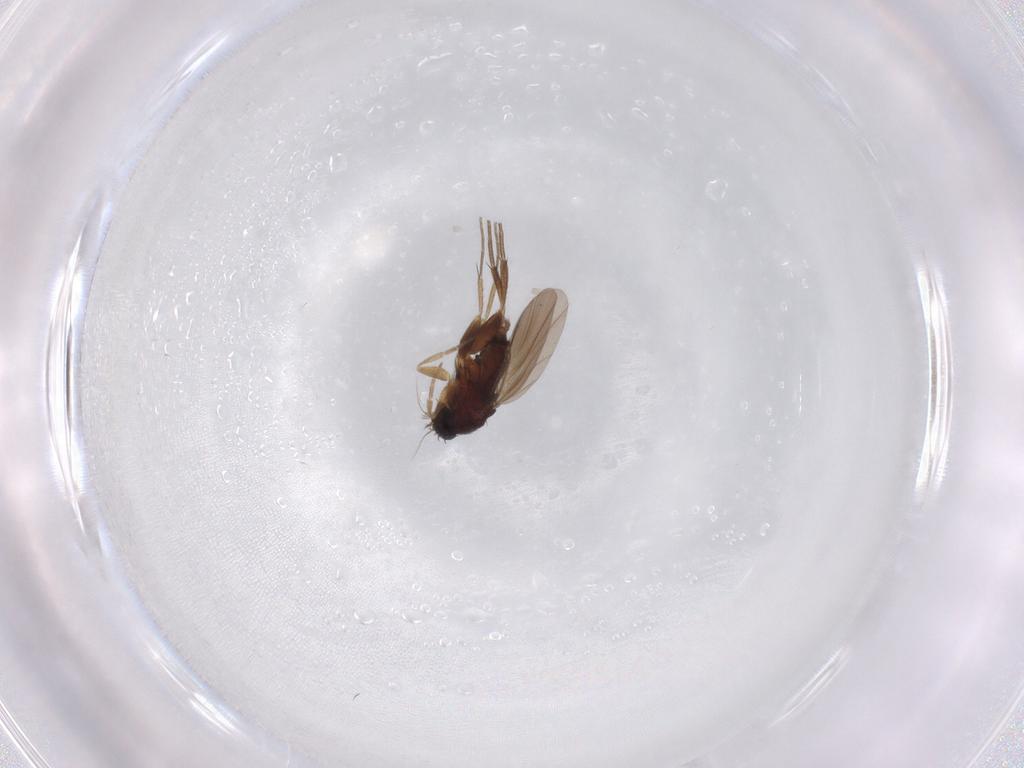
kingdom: Animalia
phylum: Arthropoda
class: Insecta
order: Diptera
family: Phoridae
